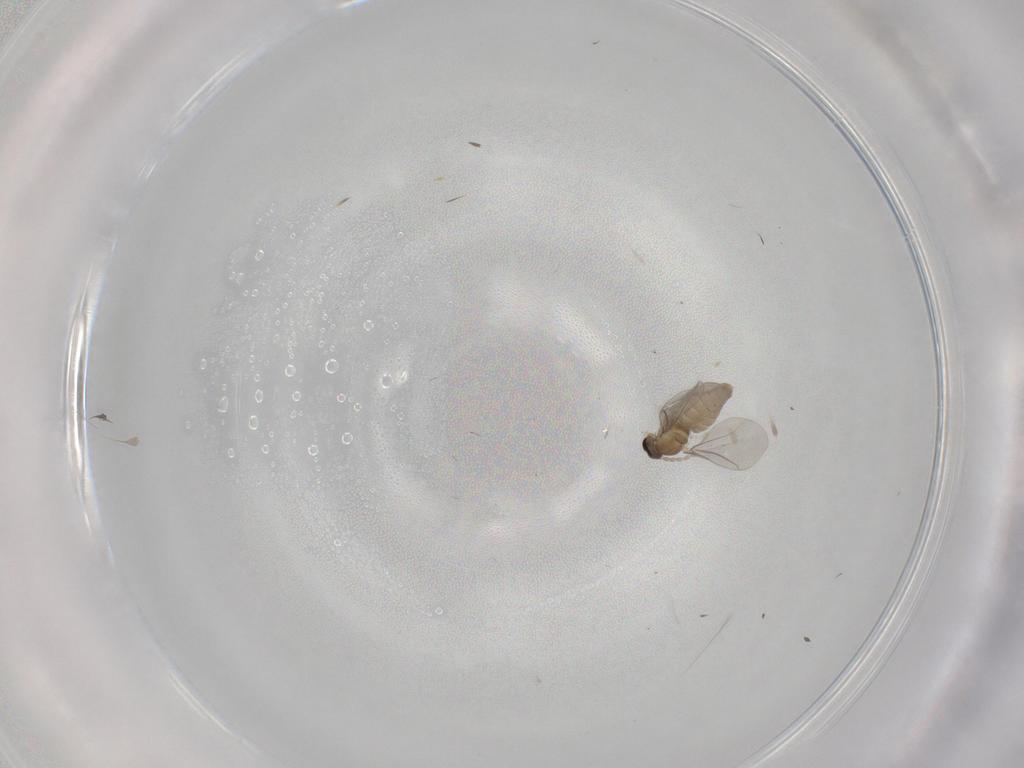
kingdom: Animalia
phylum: Arthropoda
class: Insecta
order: Diptera
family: Cecidomyiidae
